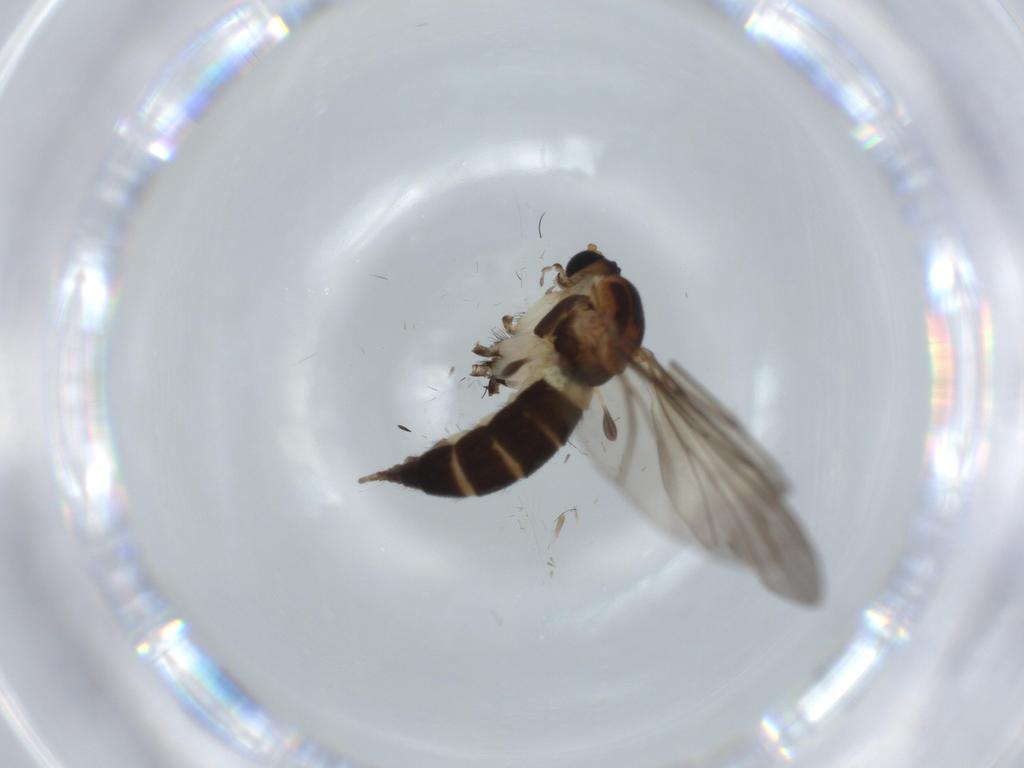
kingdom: Animalia
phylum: Arthropoda
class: Insecta
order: Diptera
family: Sciaridae
